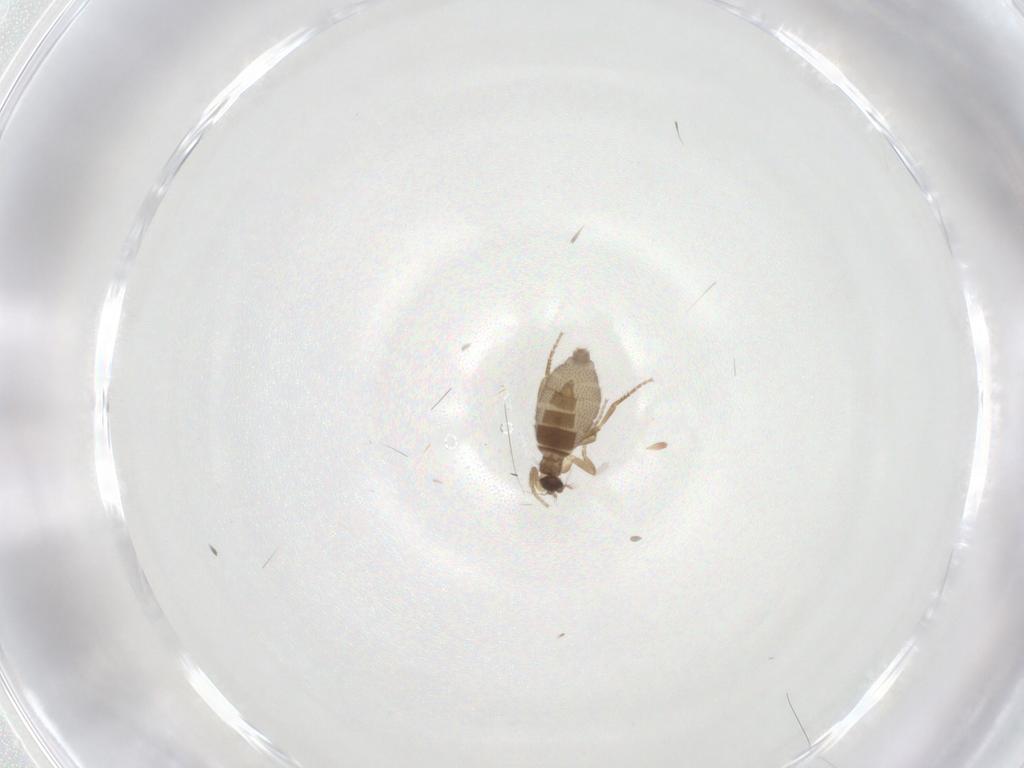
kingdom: Animalia
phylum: Arthropoda
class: Insecta
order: Diptera
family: Phoridae
